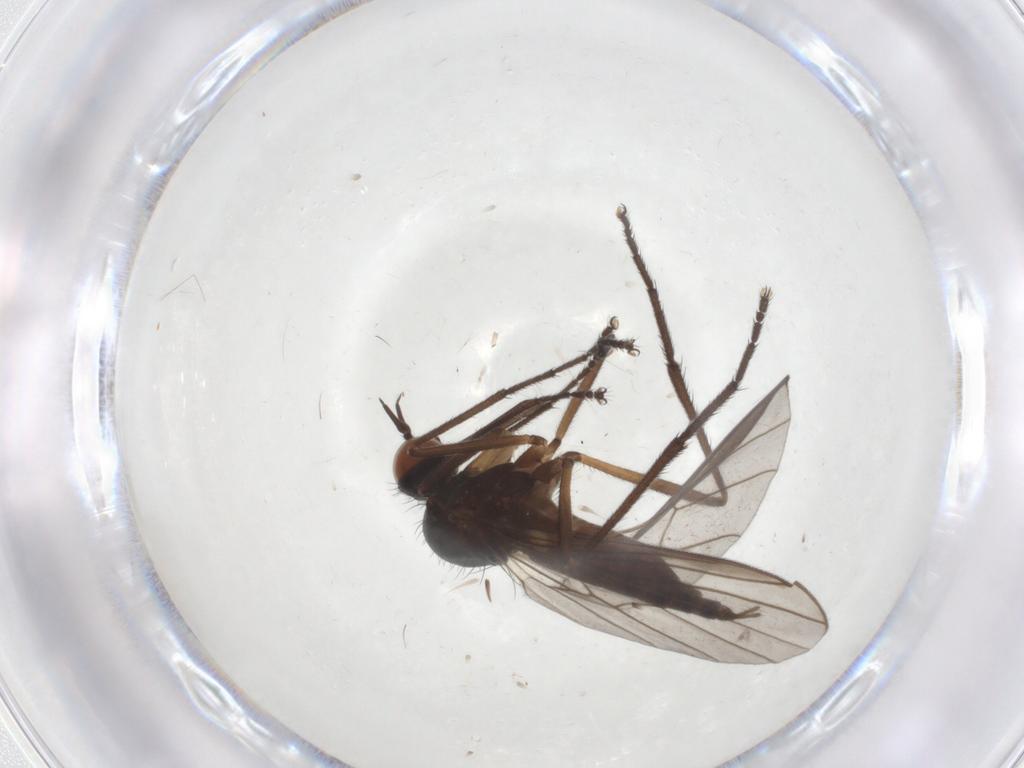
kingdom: Animalia
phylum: Arthropoda
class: Insecta
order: Diptera
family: Empididae
